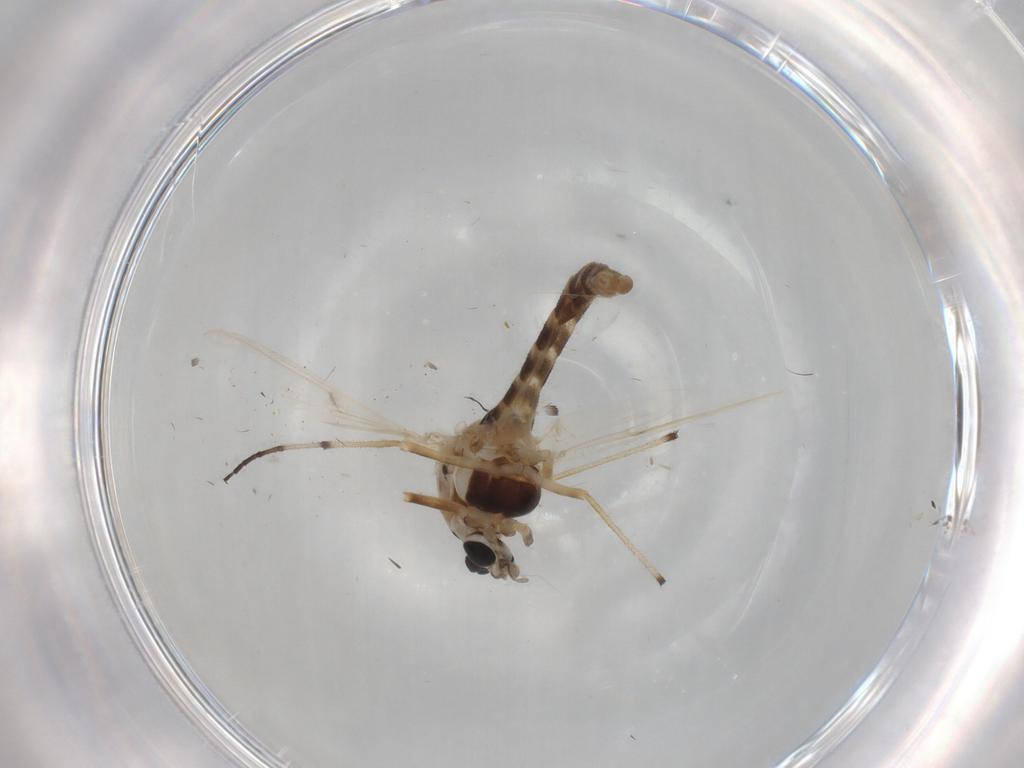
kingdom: Animalia
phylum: Arthropoda
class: Insecta
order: Diptera
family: Chironomidae
